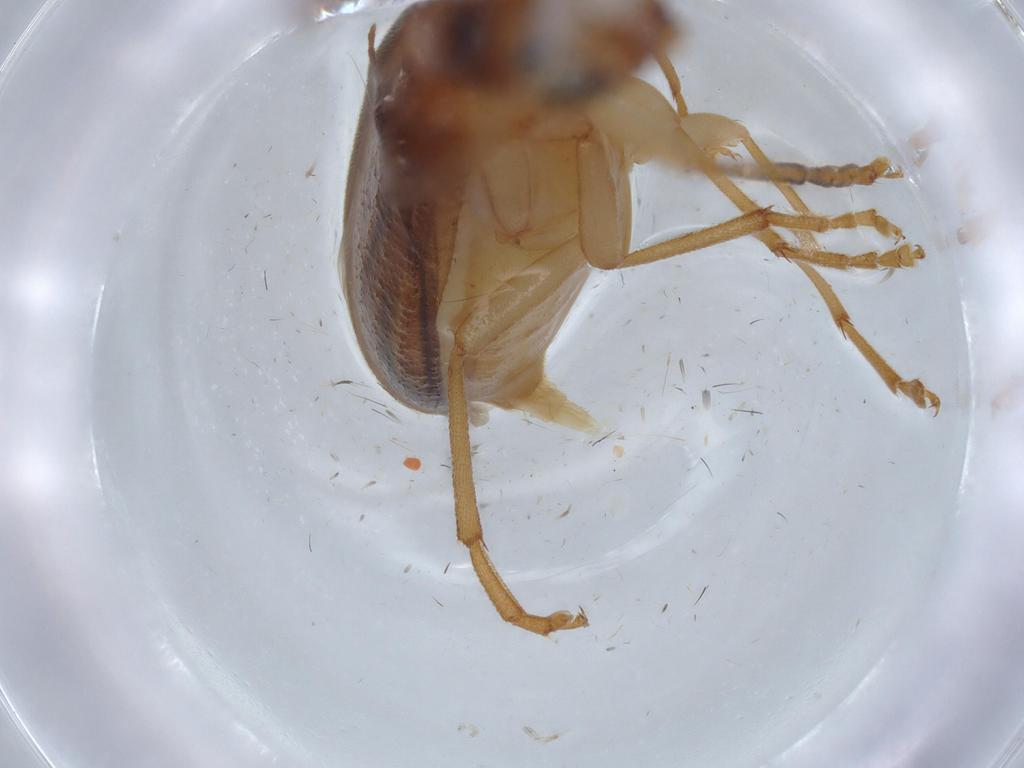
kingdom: Animalia
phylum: Arthropoda
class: Insecta
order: Coleoptera
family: Oedemeridae
